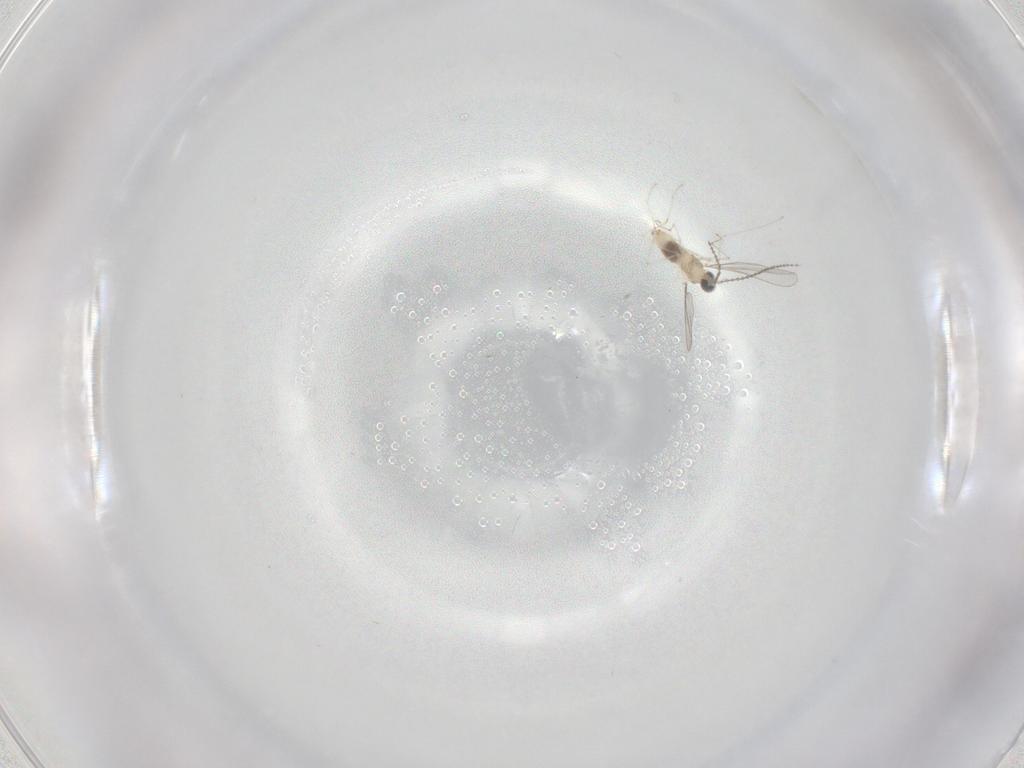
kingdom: Animalia
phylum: Arthropoda
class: Insecta
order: Diptera
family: Cecidomyiidae
